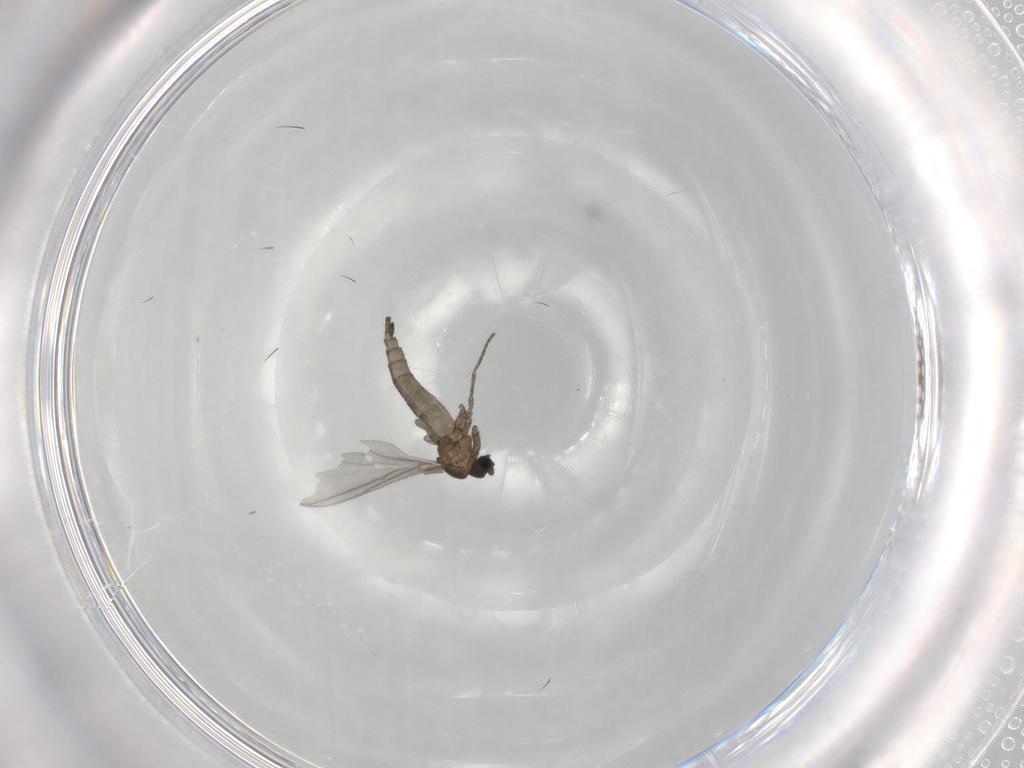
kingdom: Animalia
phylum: Arthropoda
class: Insecta
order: Diptera
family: Sciaridae
